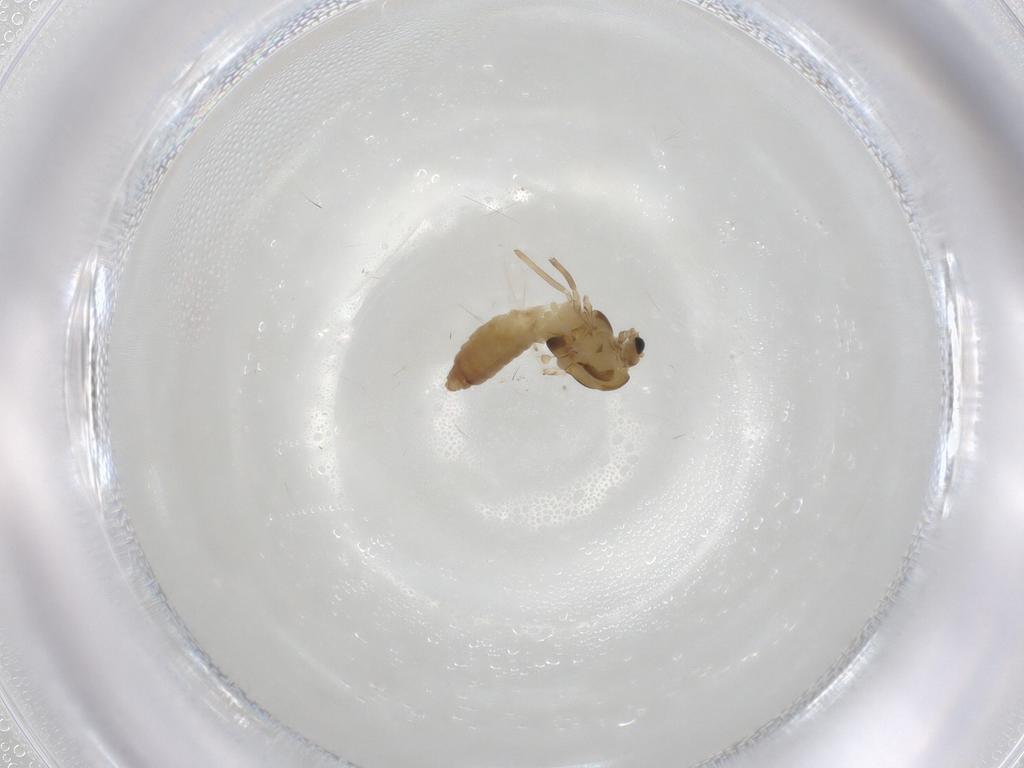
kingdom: Animalia
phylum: Arthropoda
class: Insecta
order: Diptera
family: Chironomidae
